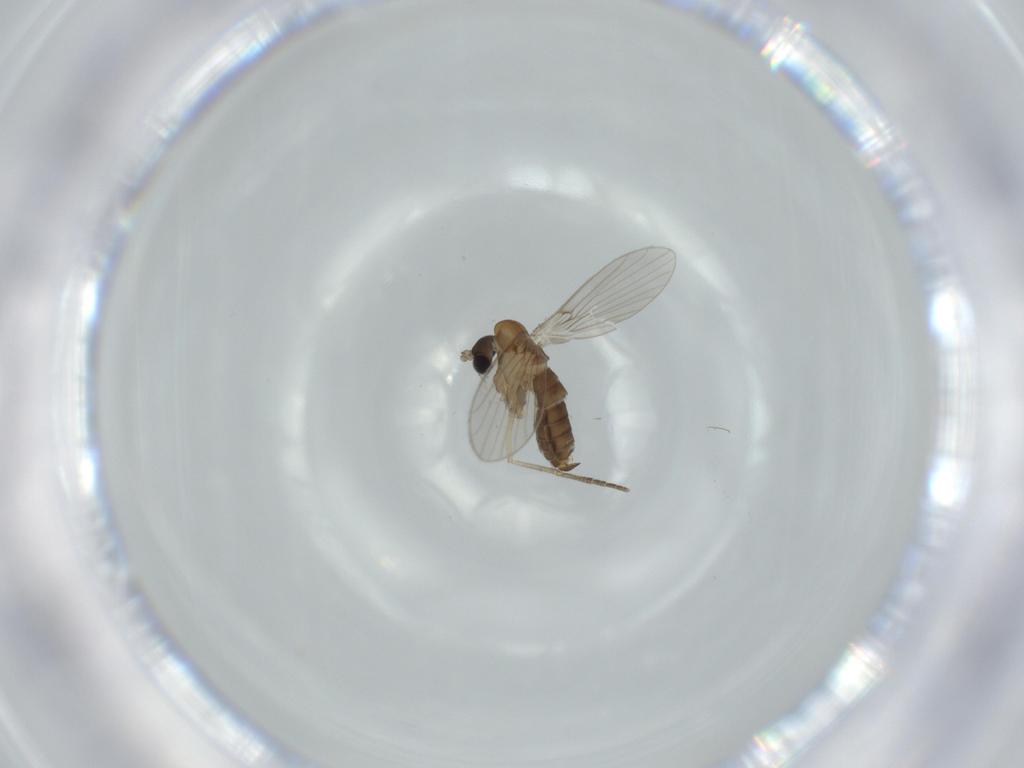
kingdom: Animalia
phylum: Arthropoda
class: Insecta
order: Diptera
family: Psychodidae
